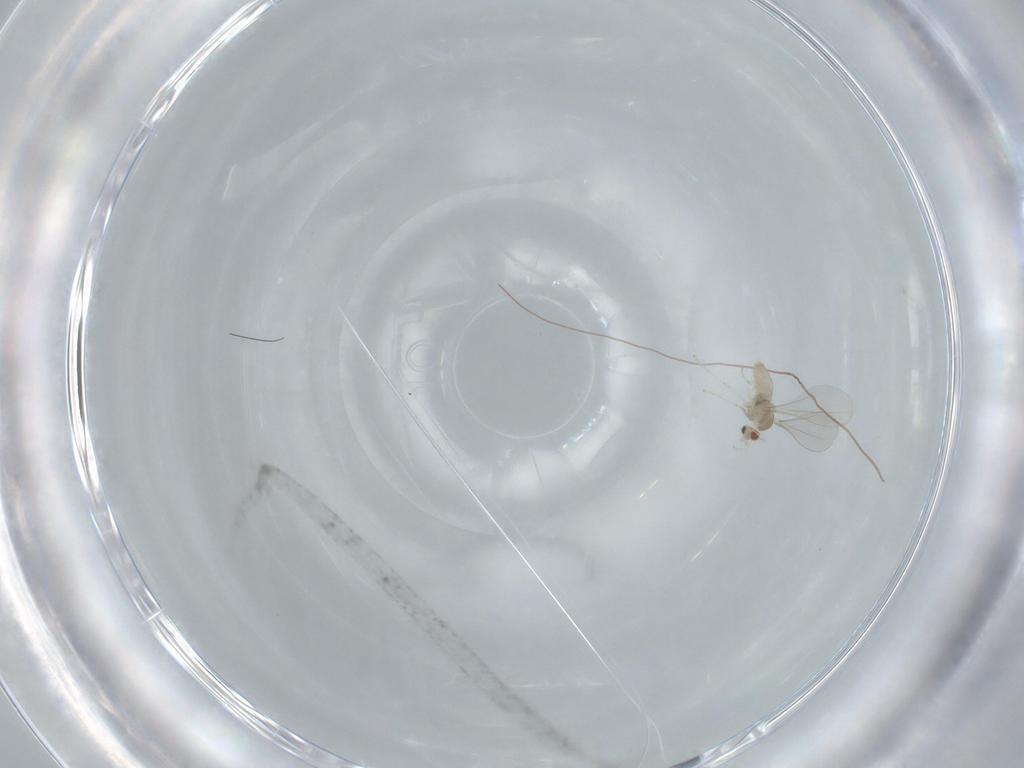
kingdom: Animalia
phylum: Arthropoda
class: Insecta
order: Diptera
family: Cecidomyiidae
